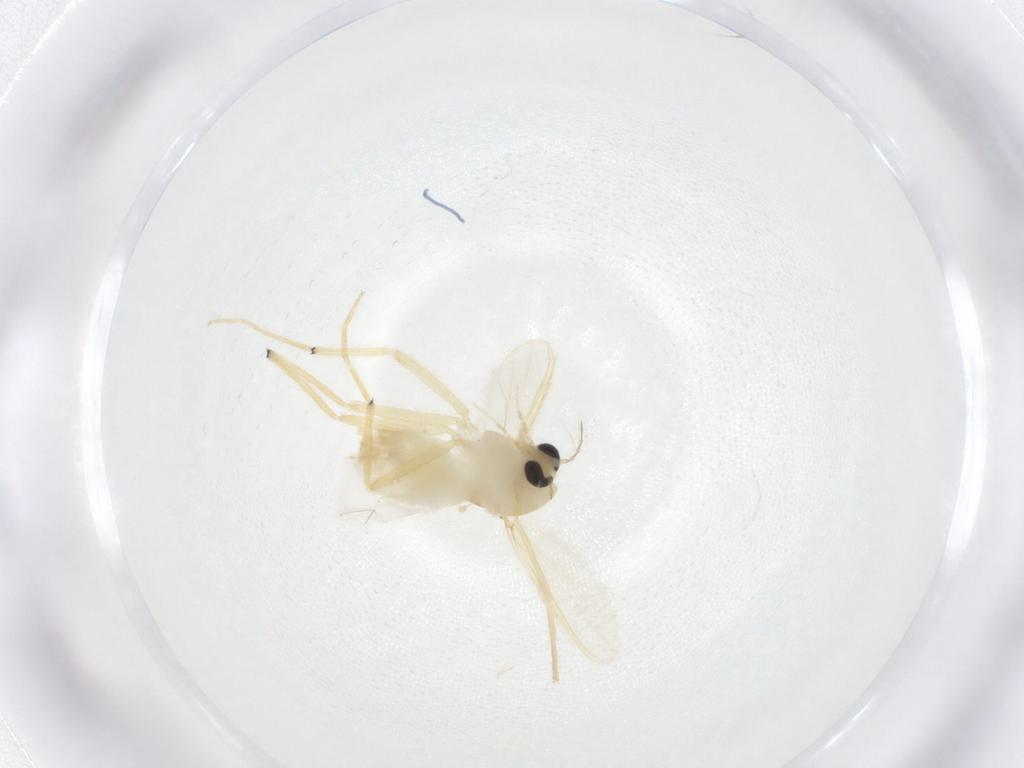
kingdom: Animalia
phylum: Arthropoda
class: Insecta
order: Diptera
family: Chironomidae
